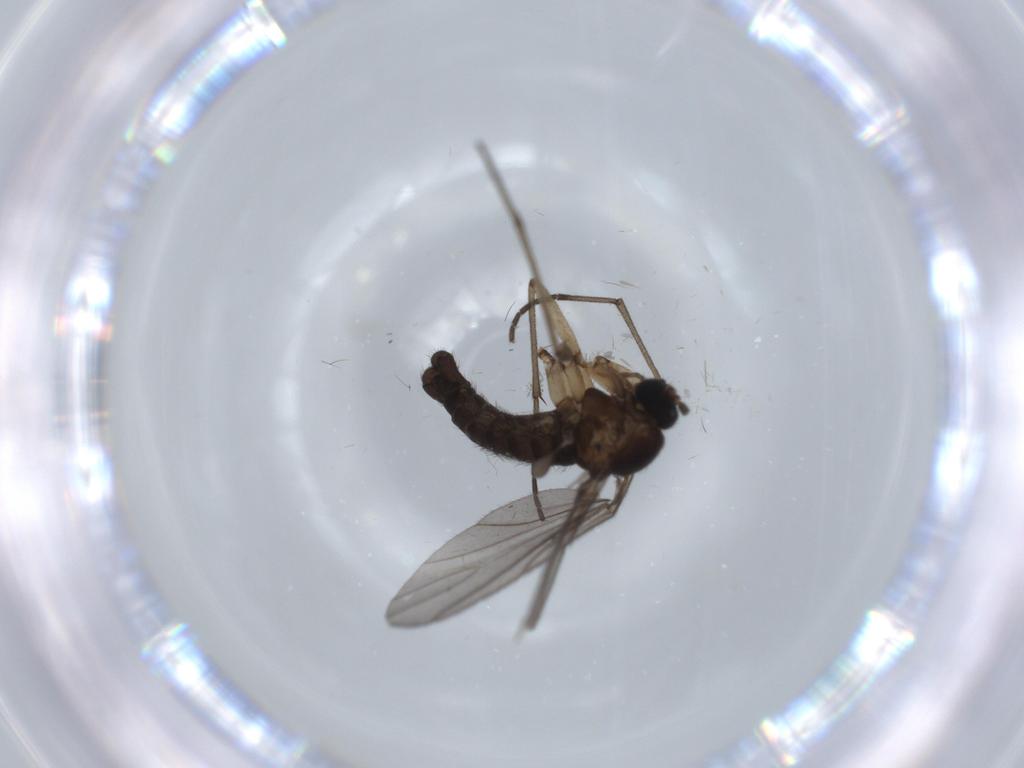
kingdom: Animalia
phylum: Arthropoda
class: Insecta
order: Diptera
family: Sciaridae
